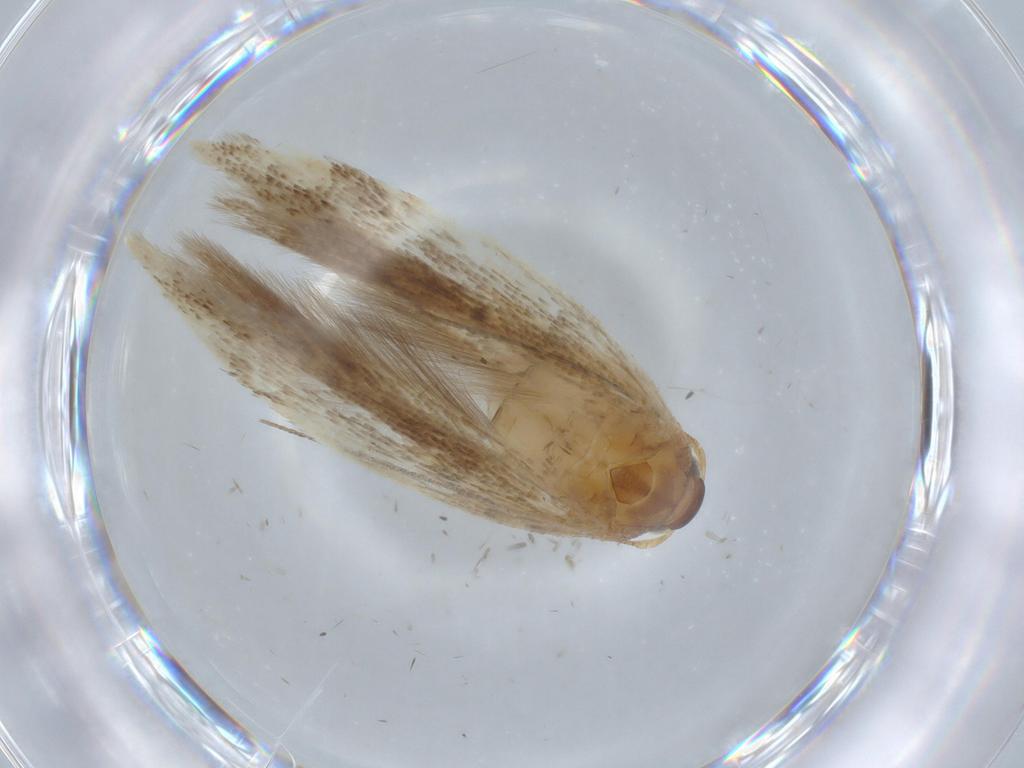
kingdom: Animalia
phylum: Arthropoda
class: Insecta
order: Lepidoptera
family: Gelechiidae
